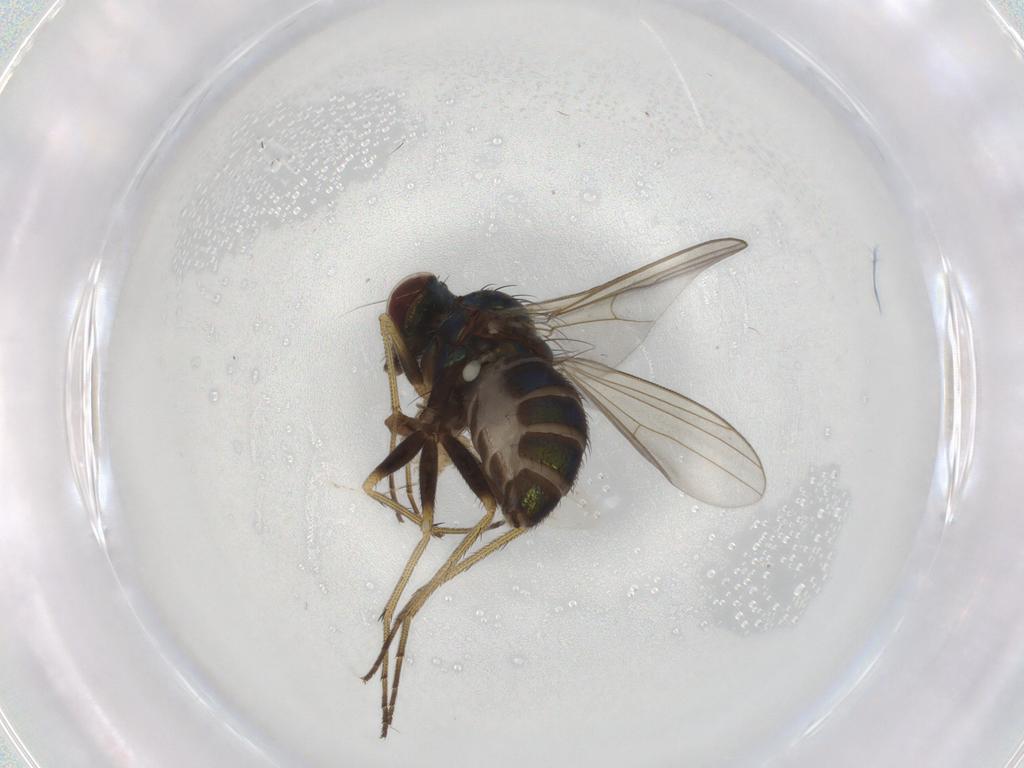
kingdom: Animalia
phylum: Arthropoda
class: Insecta
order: Diptera
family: Dolichopodidae
